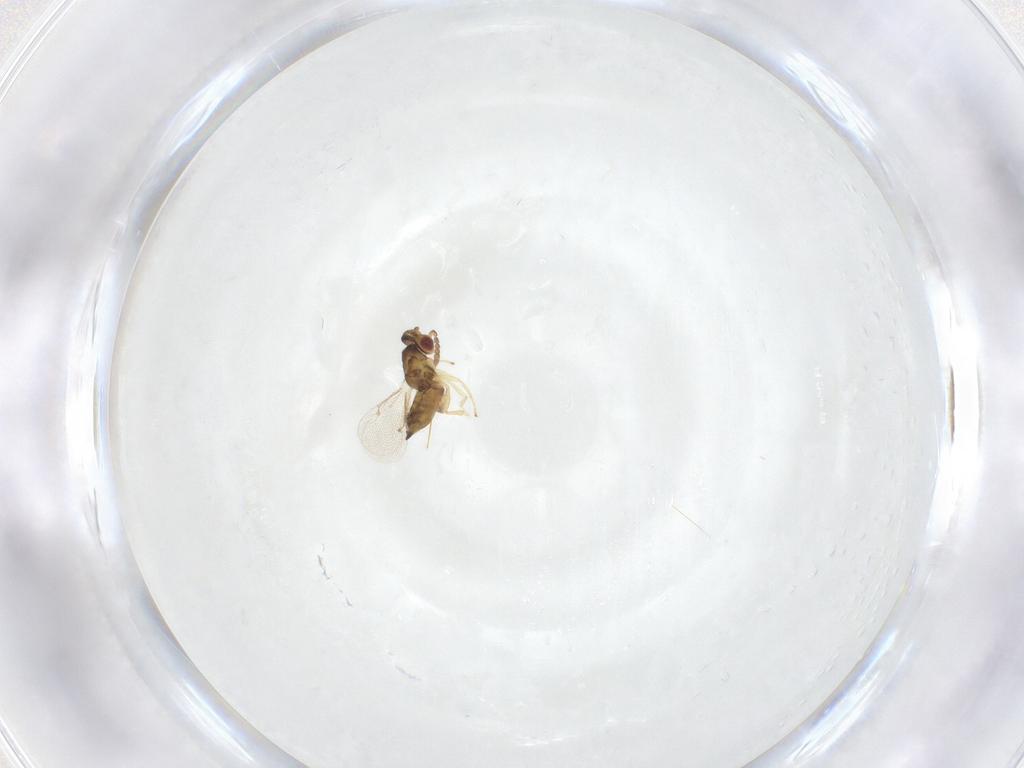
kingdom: Animalia
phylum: Arthropoda
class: Insecta
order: Hymenoptera
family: Eulophidae
